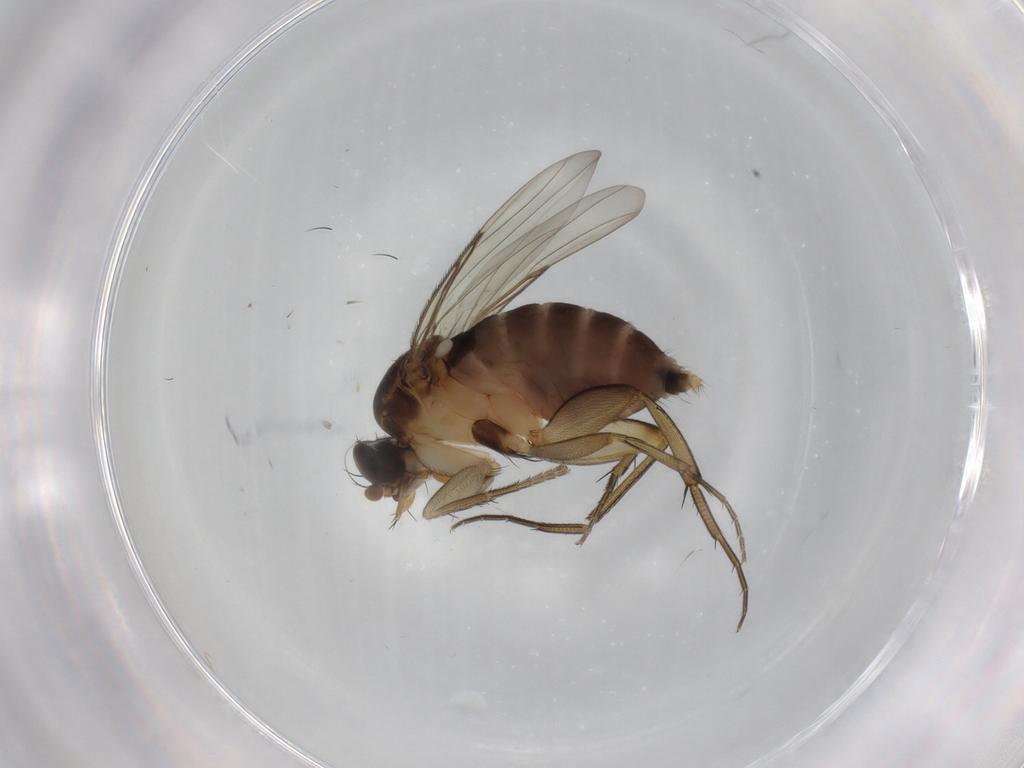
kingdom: Animalia
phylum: Arthropoda
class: Insecta
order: Diptera
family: Phoridae
